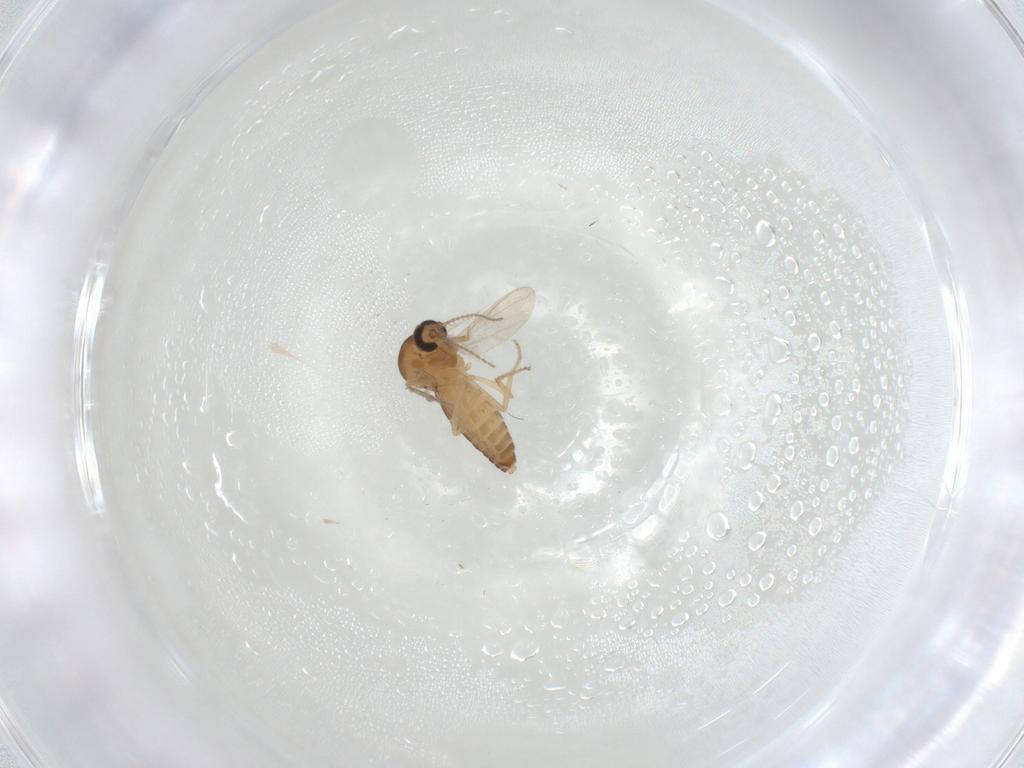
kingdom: Animalia
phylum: Arthropoda
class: Insecta
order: Diptera
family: Ceratopogonidae
